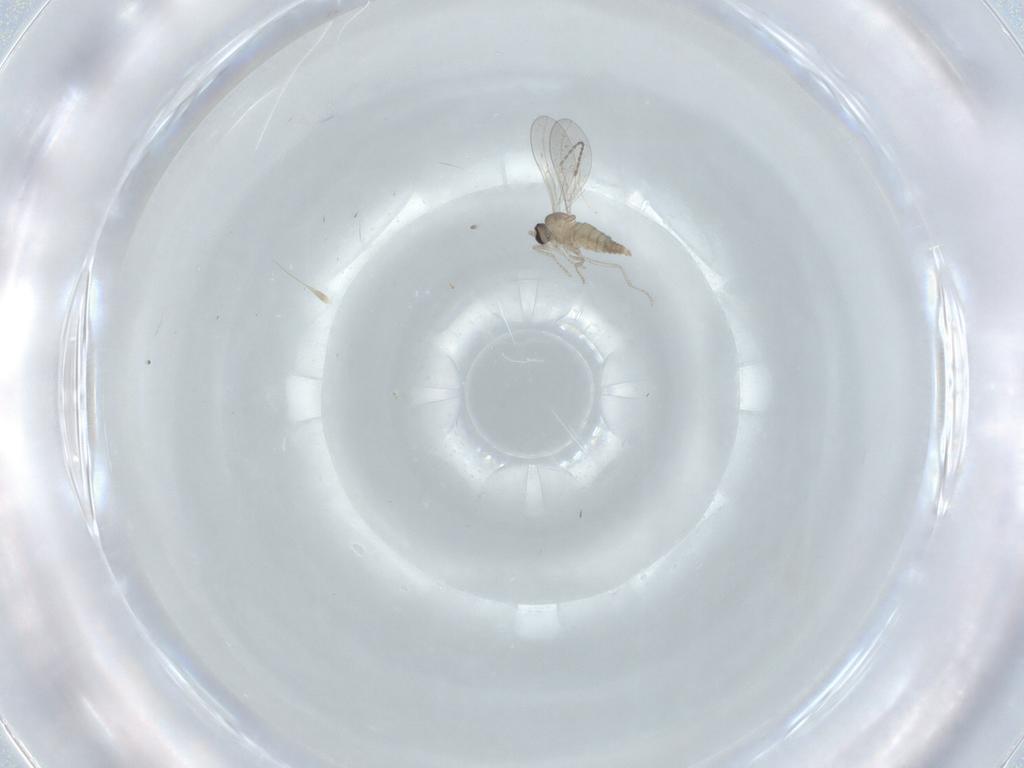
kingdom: Animalia
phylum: Arthropoda
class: Insecta
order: Diptera
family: Cecidomyiidae
